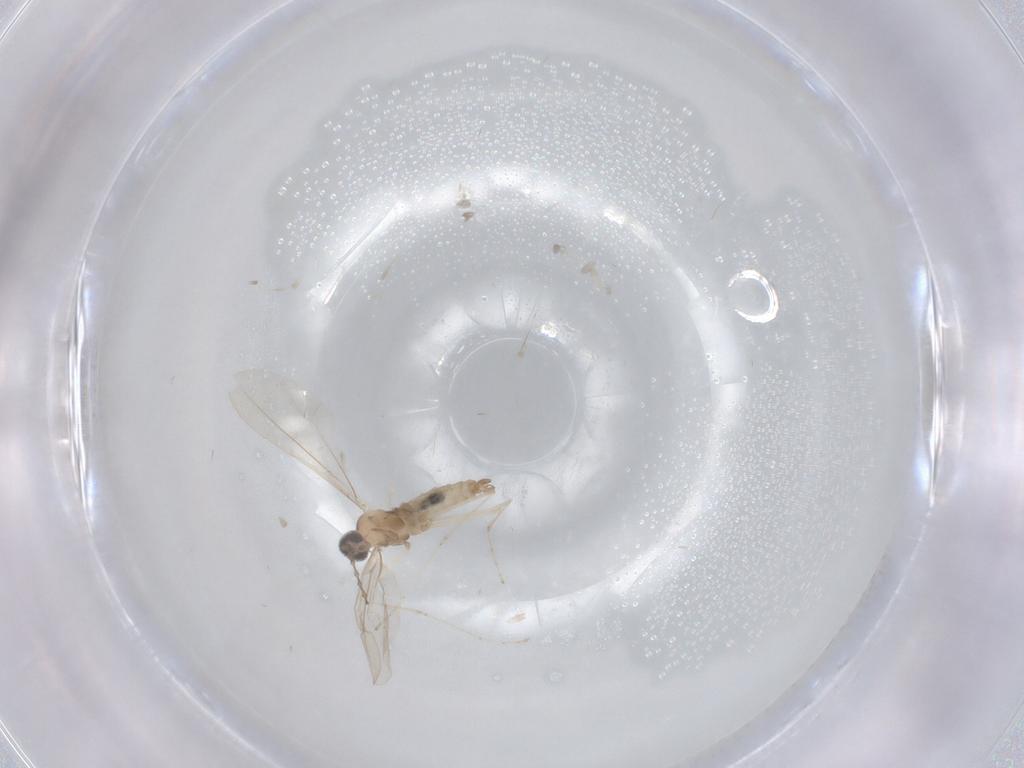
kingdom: Animalia
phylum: Arthropoda
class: Insecta
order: Diptera
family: Cecidomyiidae
